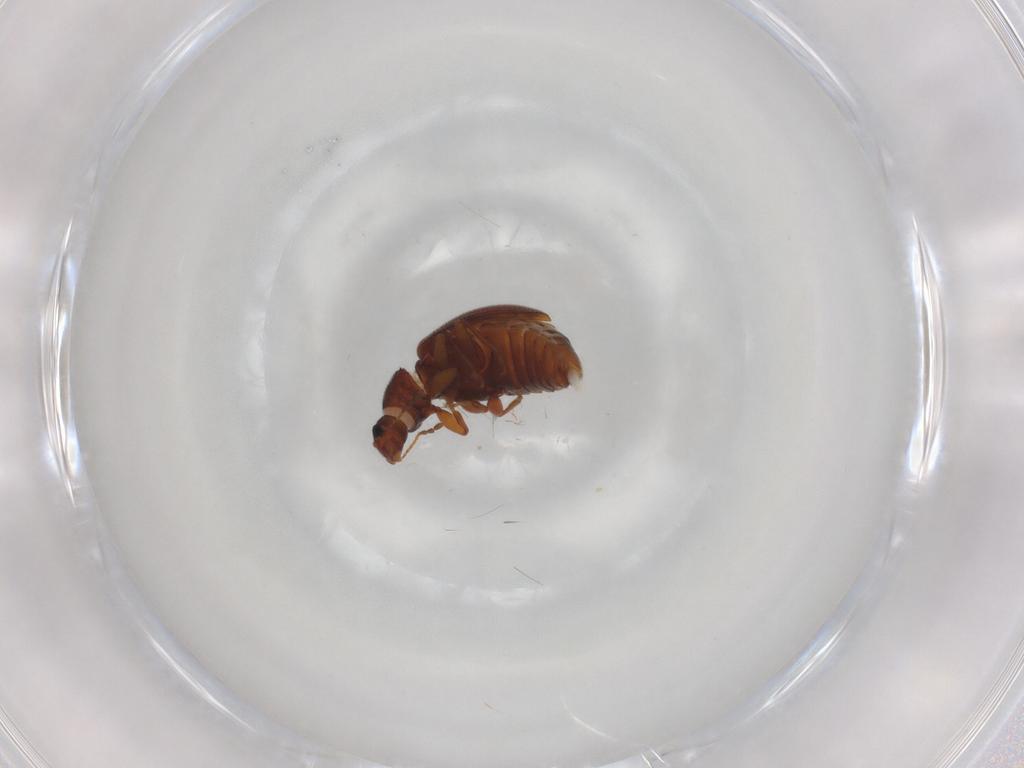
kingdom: Animalia
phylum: Arthropoda
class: Insecta
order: Coleoptera
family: Latridiidae
